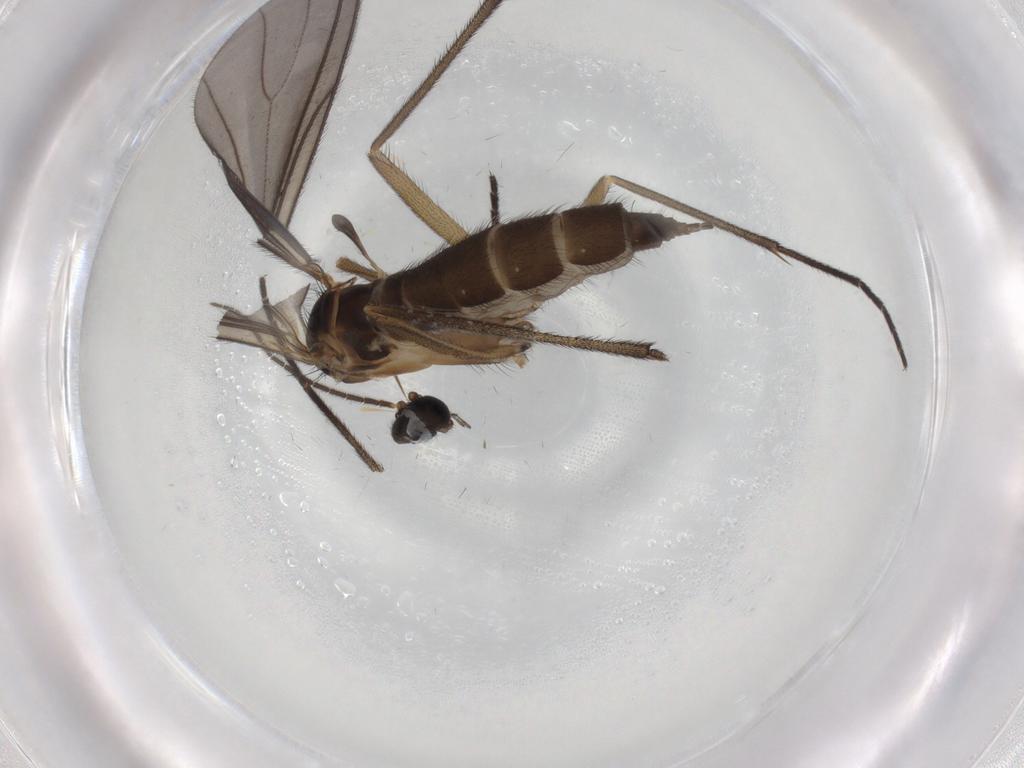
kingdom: Animalia
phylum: Arthropoda
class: Insecta
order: Diptera
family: Sciaridae
